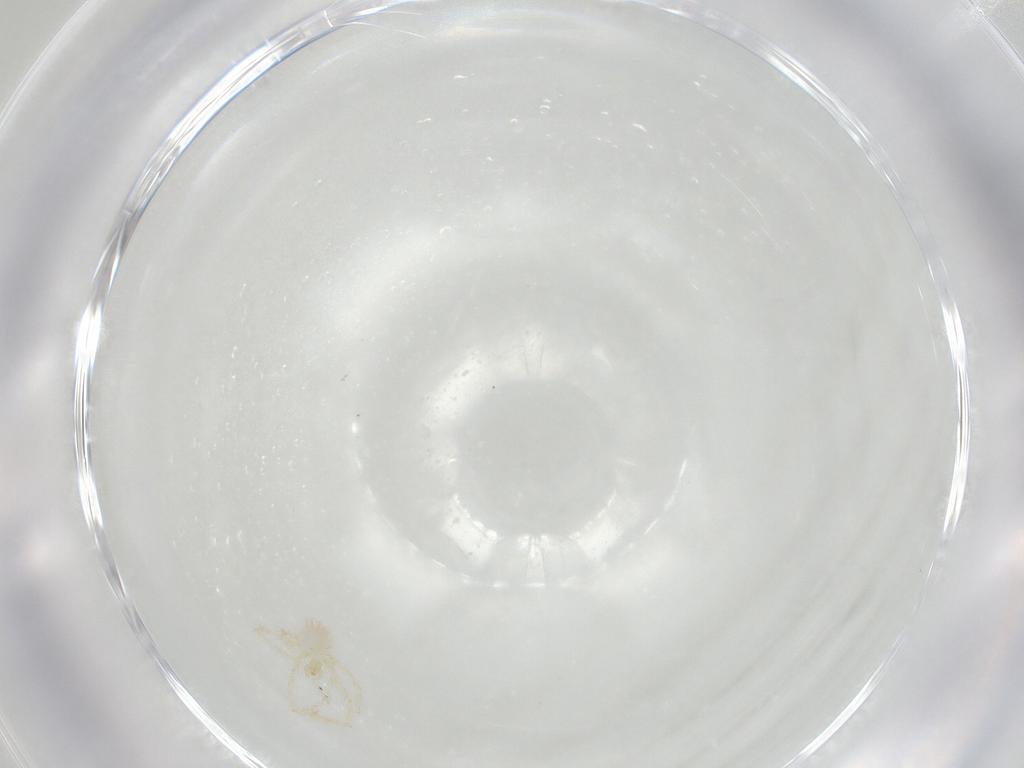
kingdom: Animalia
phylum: Arthropoda
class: Arachnida
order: Trombidiformes
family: Erythraeidae
